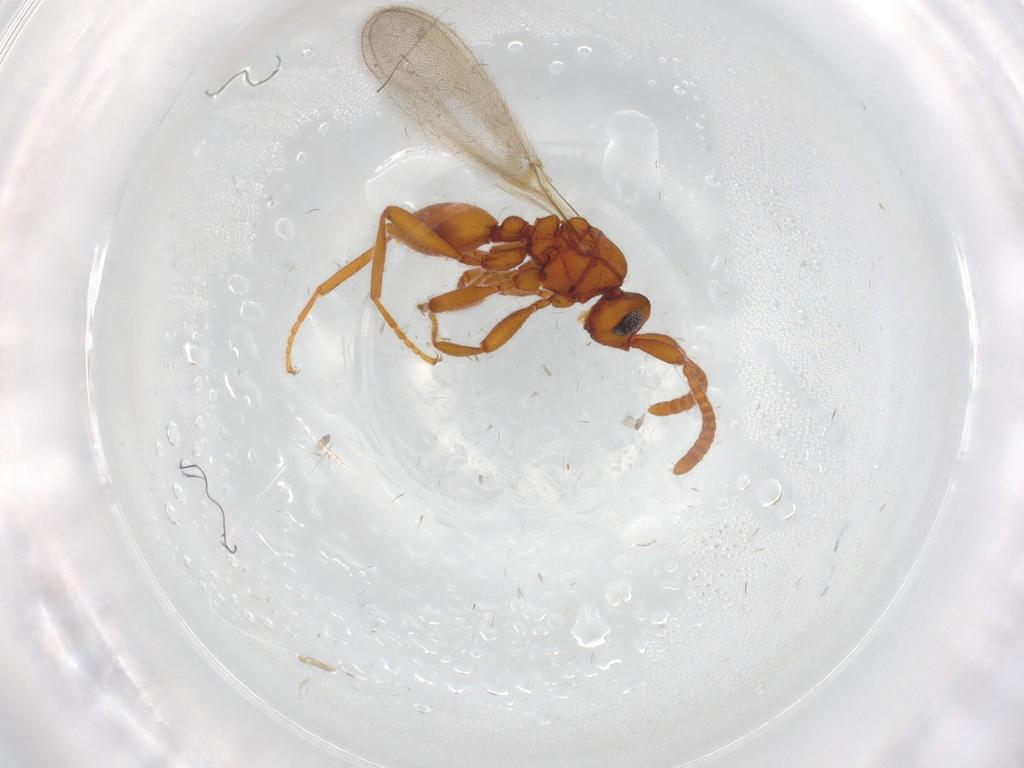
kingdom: Animalia
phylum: Arthropoda
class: Insecta
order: Hymenoptera
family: Diapriidae
